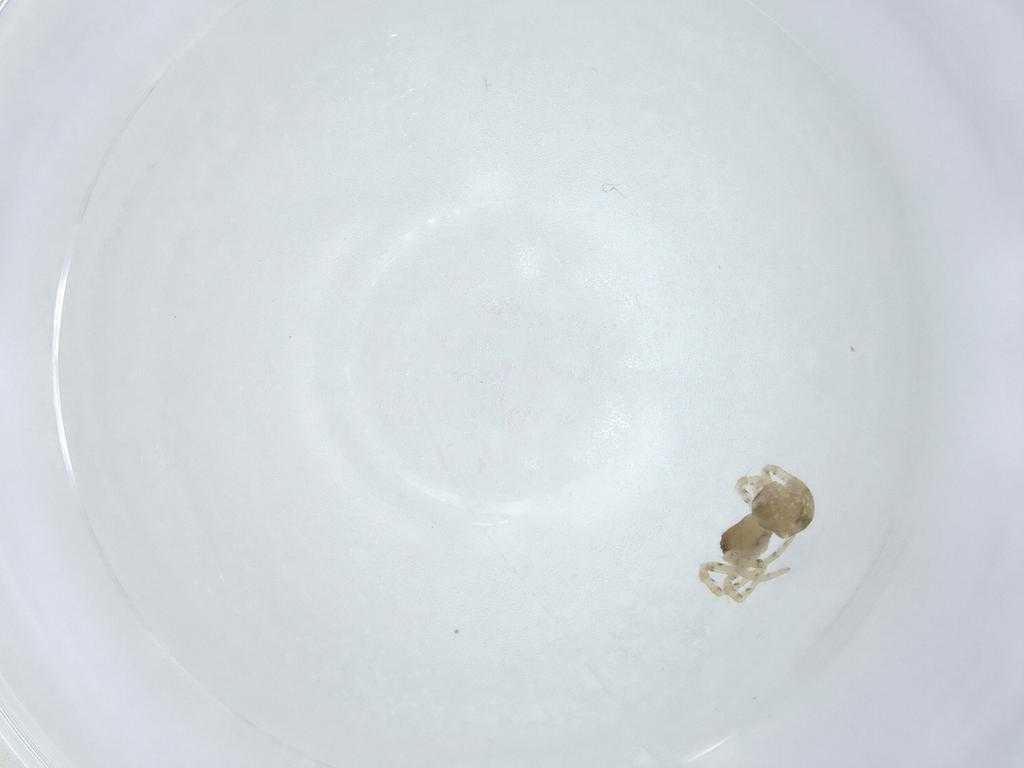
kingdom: Animalia
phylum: Arthropoda
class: Arachnida
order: Araneae
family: Theridiidae
